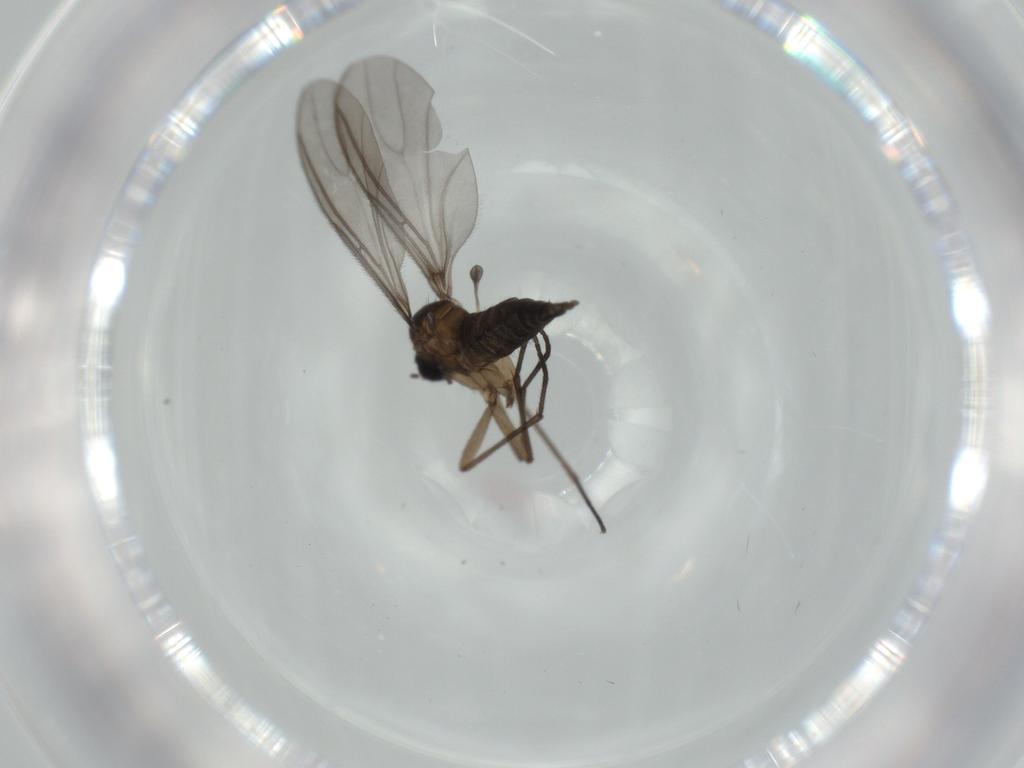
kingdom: Animalia
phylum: Arthropoda
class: Insecta
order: Diptera
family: Sciaridae
